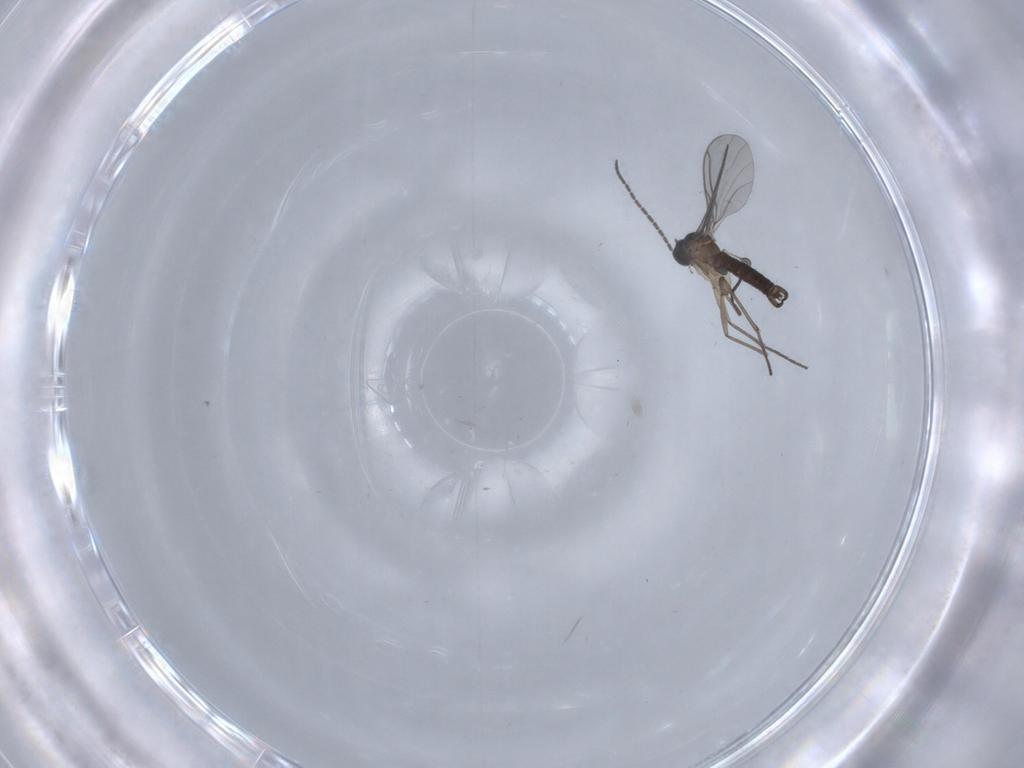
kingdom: Animalia
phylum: Arthropoda
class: Insecta
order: Diptera
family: Sciaridae
